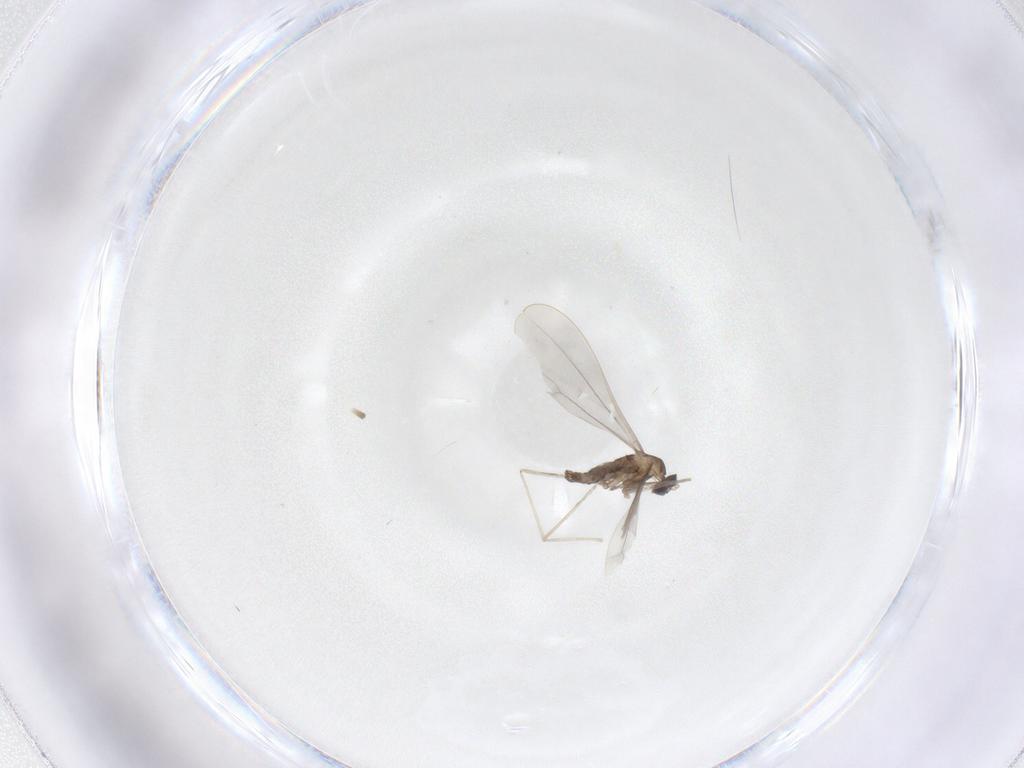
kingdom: Animalia
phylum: Arthropoda
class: Insecta
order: Diptera
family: Cecidomyiidae
